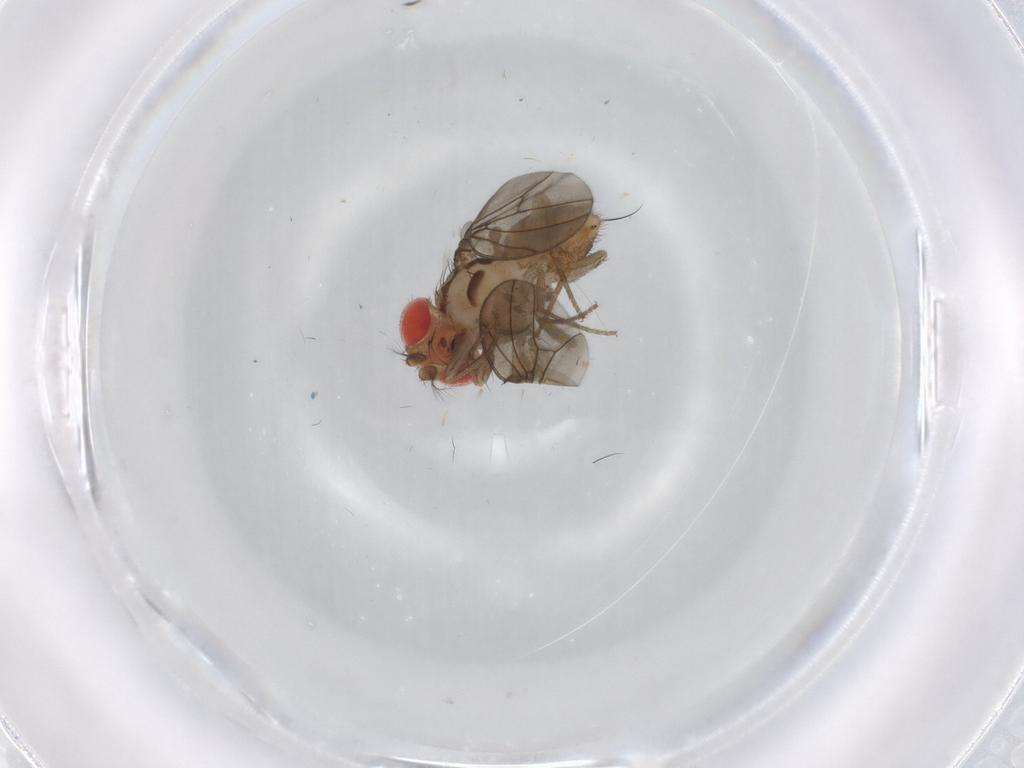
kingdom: Animalia
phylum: Arthropoda
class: Insecta
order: Diptera
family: Drosophilidae
